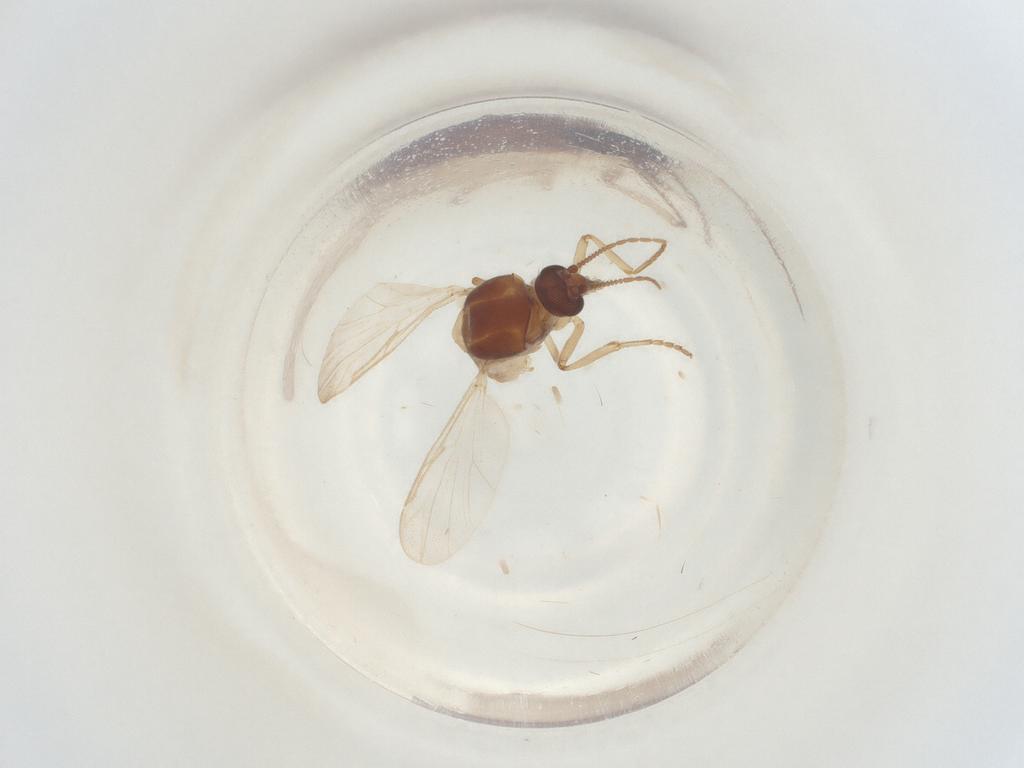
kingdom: Animalia
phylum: Arthropoda
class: Insecta
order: Diptera
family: Ceratopogonidae
